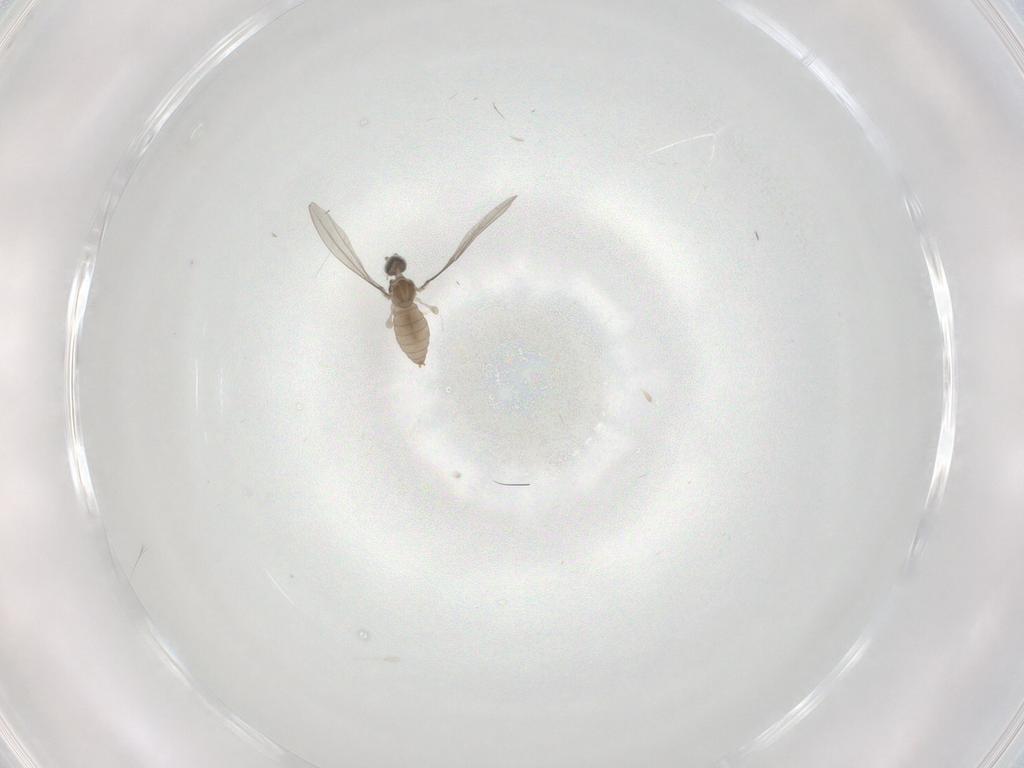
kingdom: Animalia
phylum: Arthropoda
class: Insecta
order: Diptera
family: Cecidomyiidae
